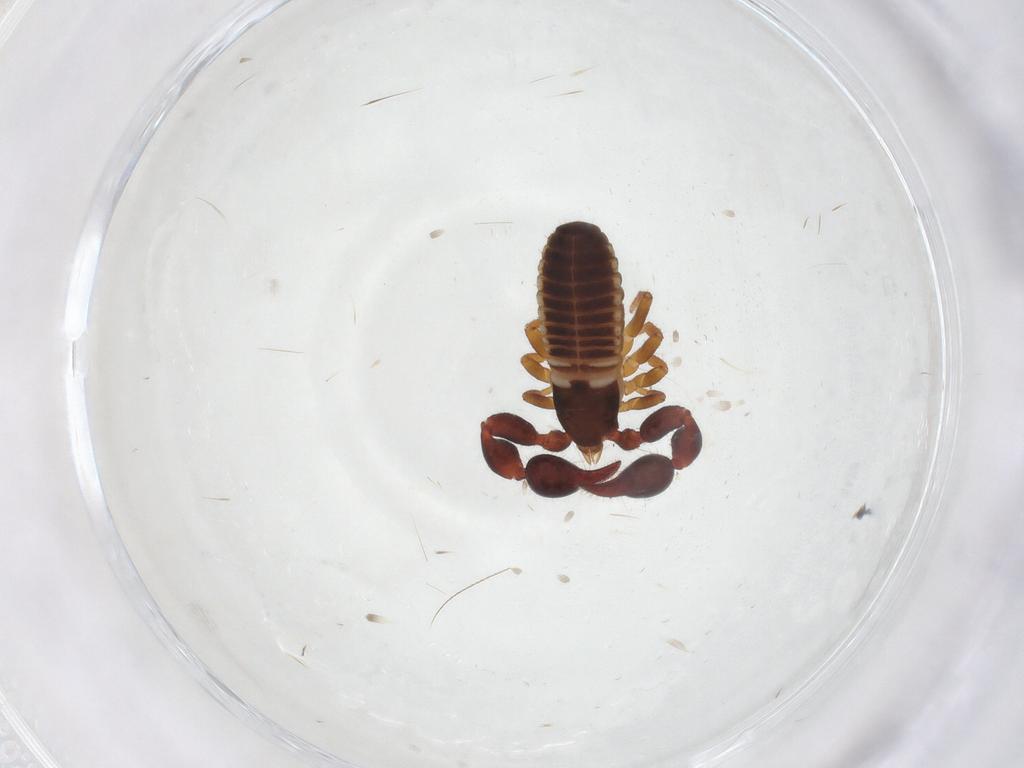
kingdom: Animalia
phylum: Arthropoda
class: Arachnida
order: Pseudoscorpiones
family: Chernetidae
